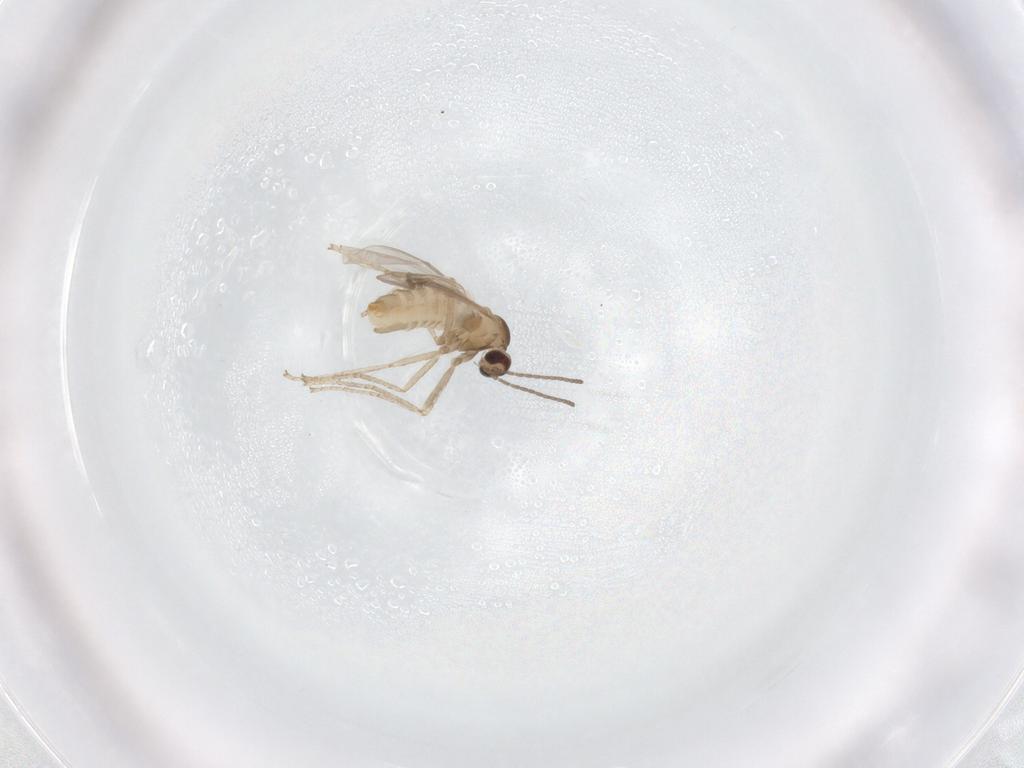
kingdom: Animalia
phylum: Arthropoda
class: Insecta
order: Diptera
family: Cecidomyiidae
